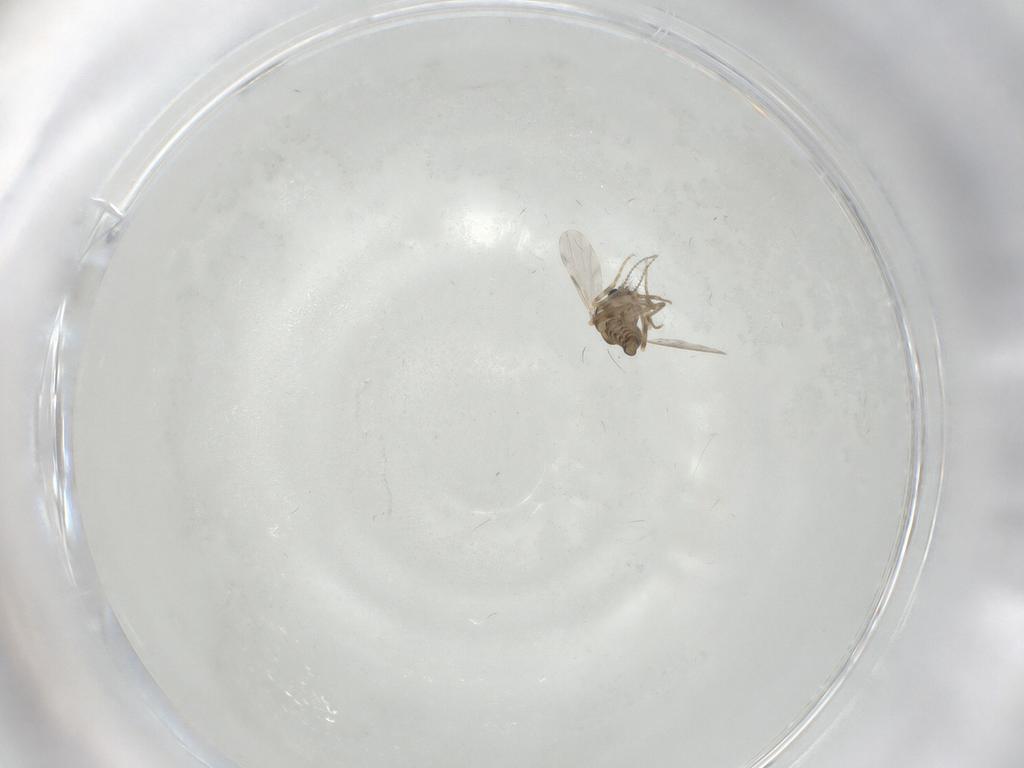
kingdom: Animalia
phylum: Arthropoda
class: Insecta
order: Diptera
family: Ceratopogonidae
